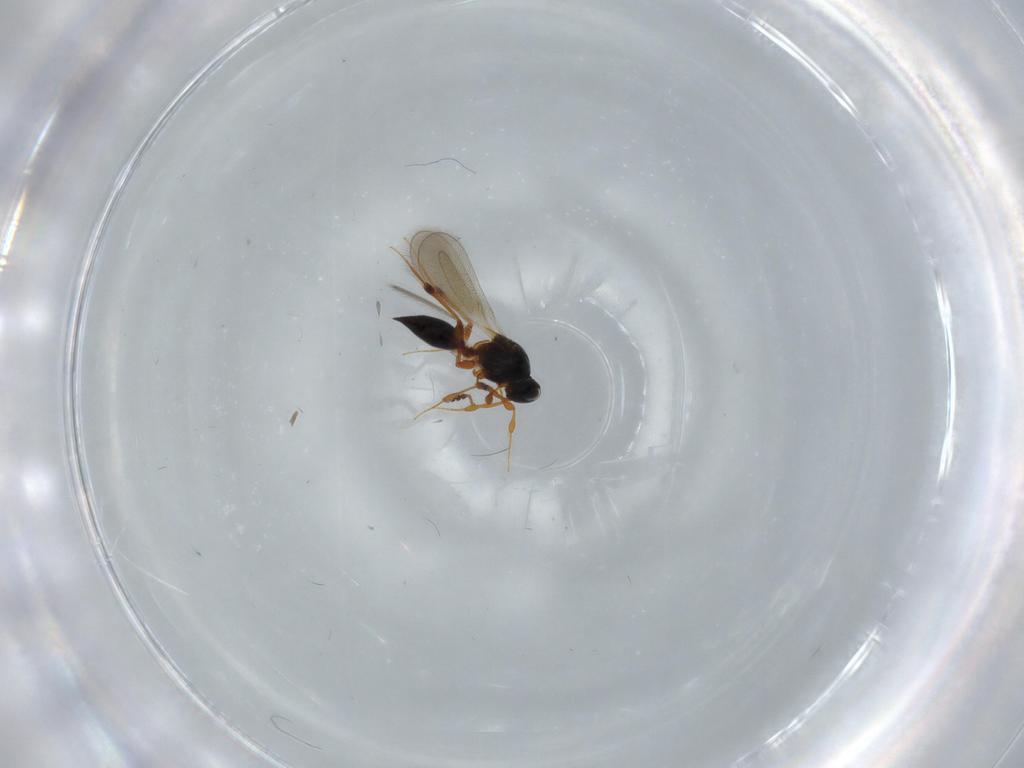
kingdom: Animalia
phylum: Arthropoda
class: Insecta
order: Hymenoptera
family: Platygastridae
